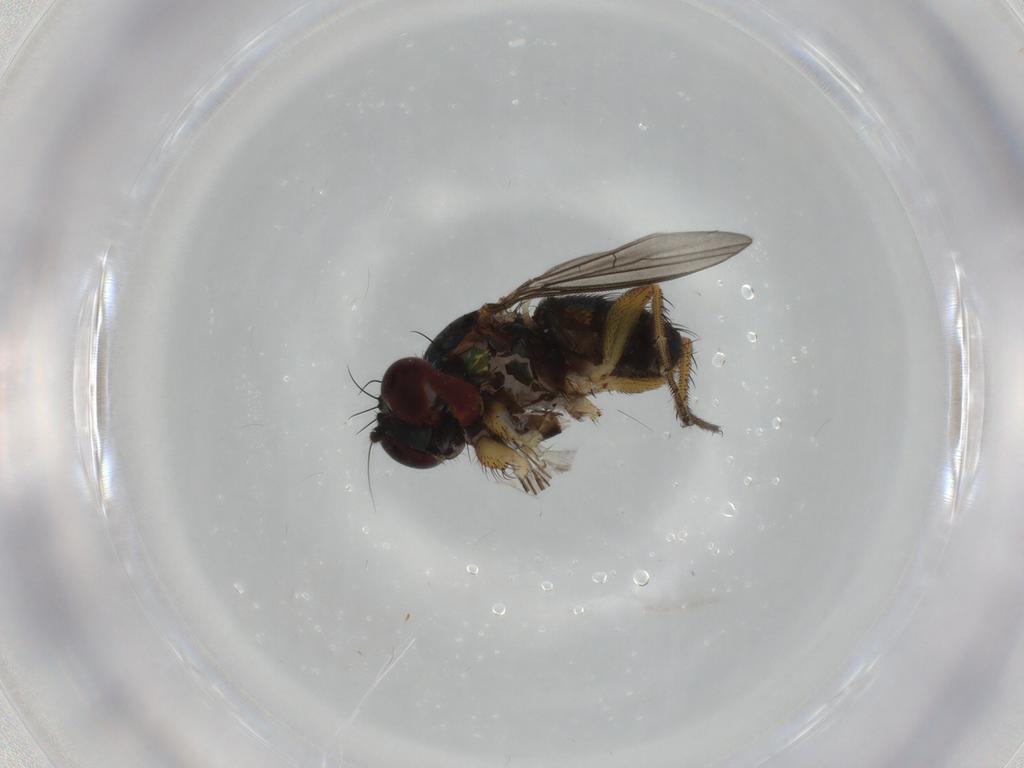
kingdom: Animalia
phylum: Arthropoda
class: Insecta
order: Diptera
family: Dolichopodidae
